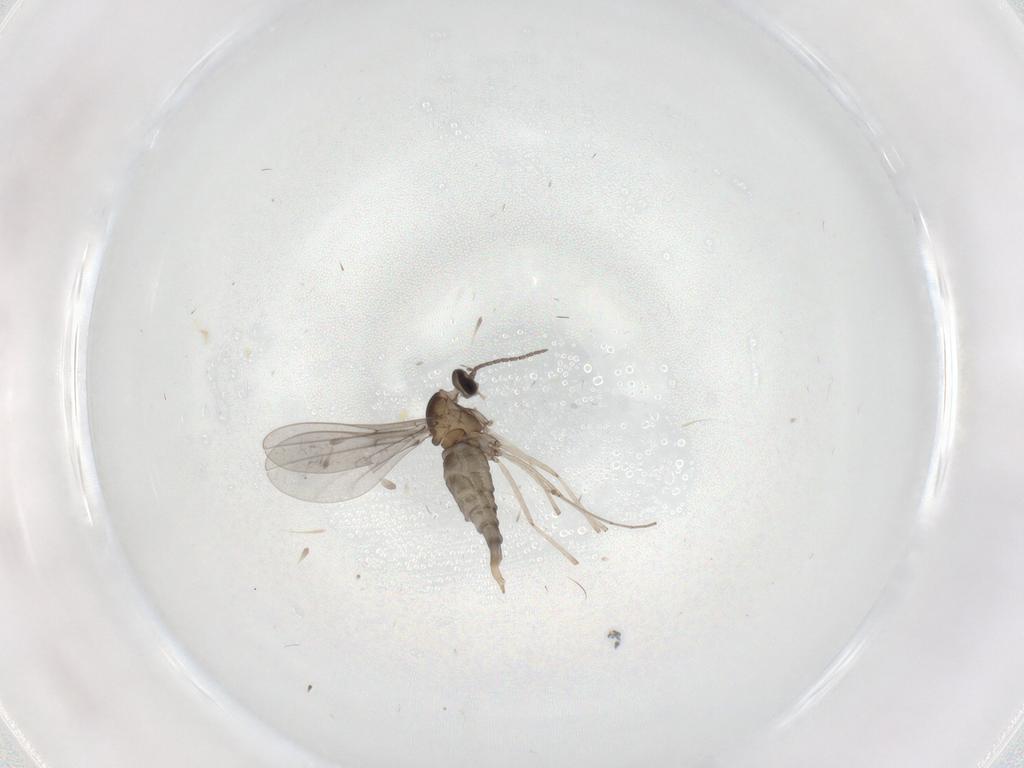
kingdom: Animalia
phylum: Arthropoda
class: Insecta
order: Diptera
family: Cecidomyiidae
